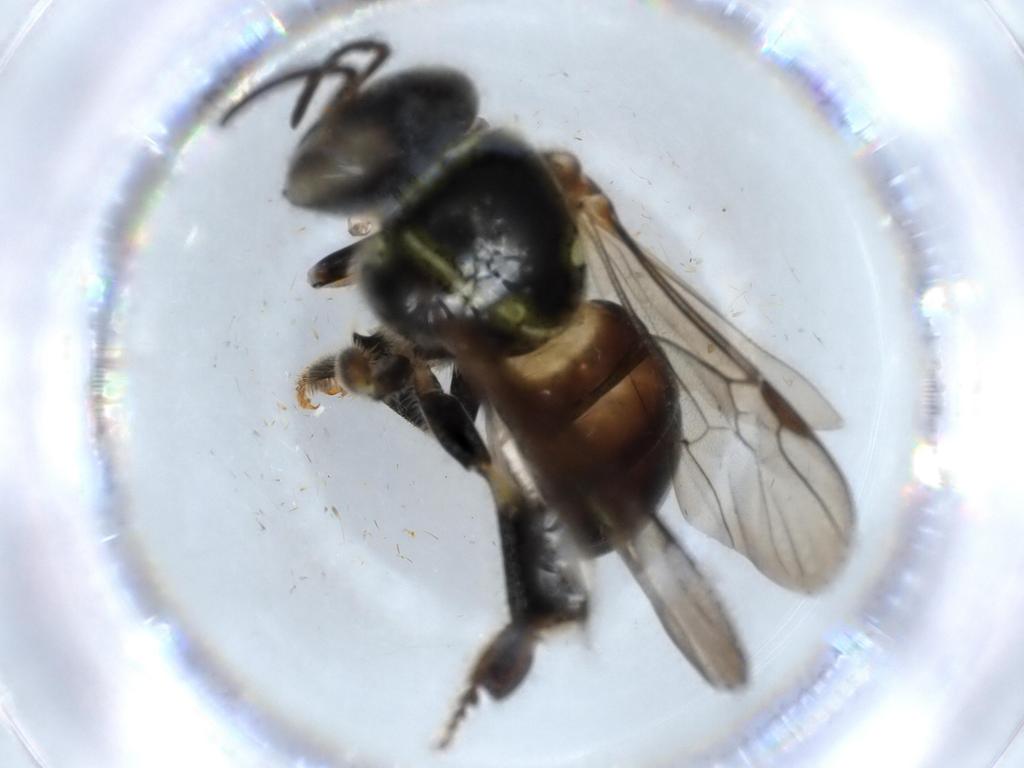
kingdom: Animalia
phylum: Arthropoda
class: Insecta
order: Hymenoptera
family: Apidae
